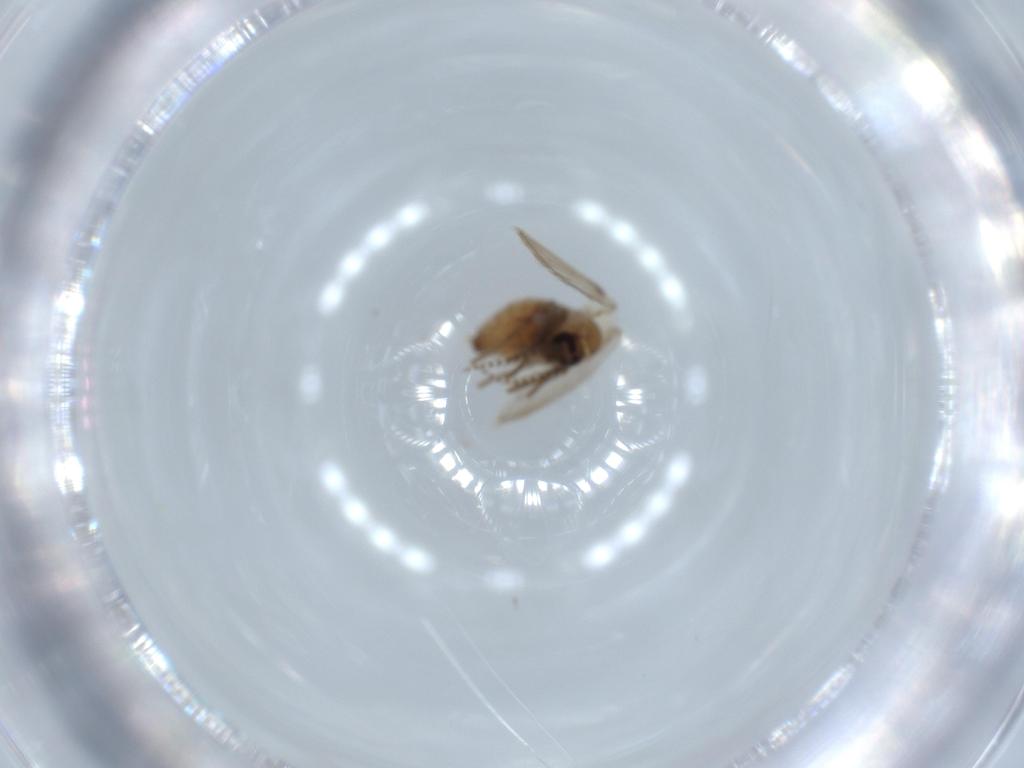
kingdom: Animalia
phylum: Arthropoda
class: Insecta
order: Diptera
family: Psychodidae
